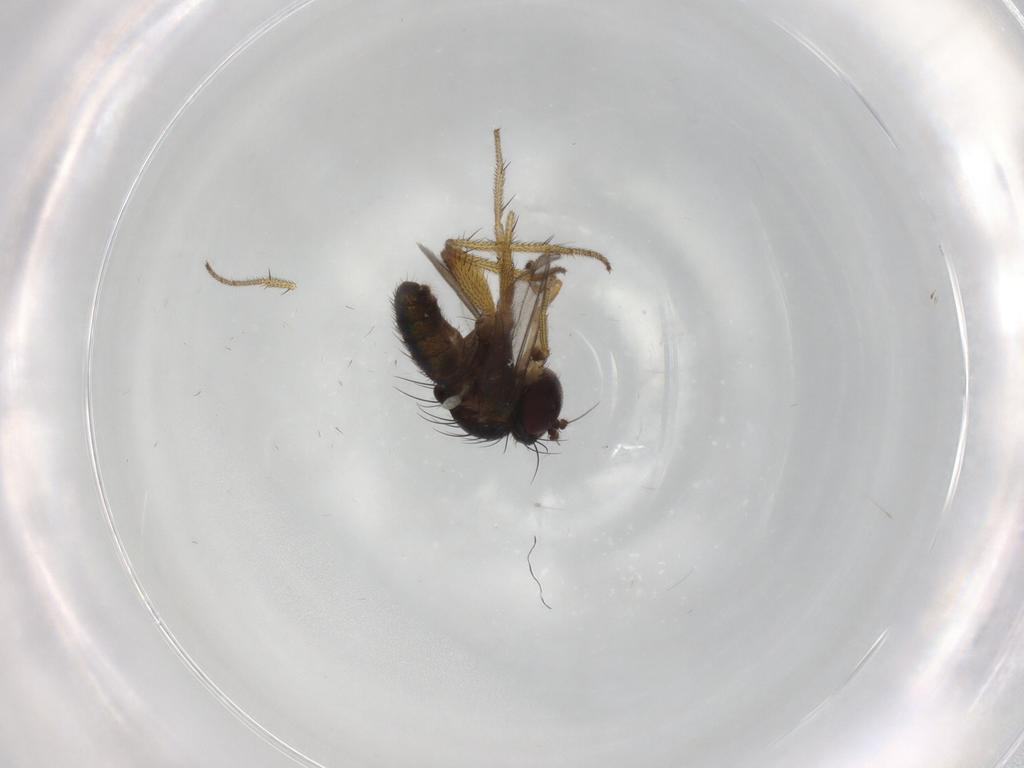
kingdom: Animalia
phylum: Arthropoda
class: Insecta
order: Diptera
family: Dolichopodidae
